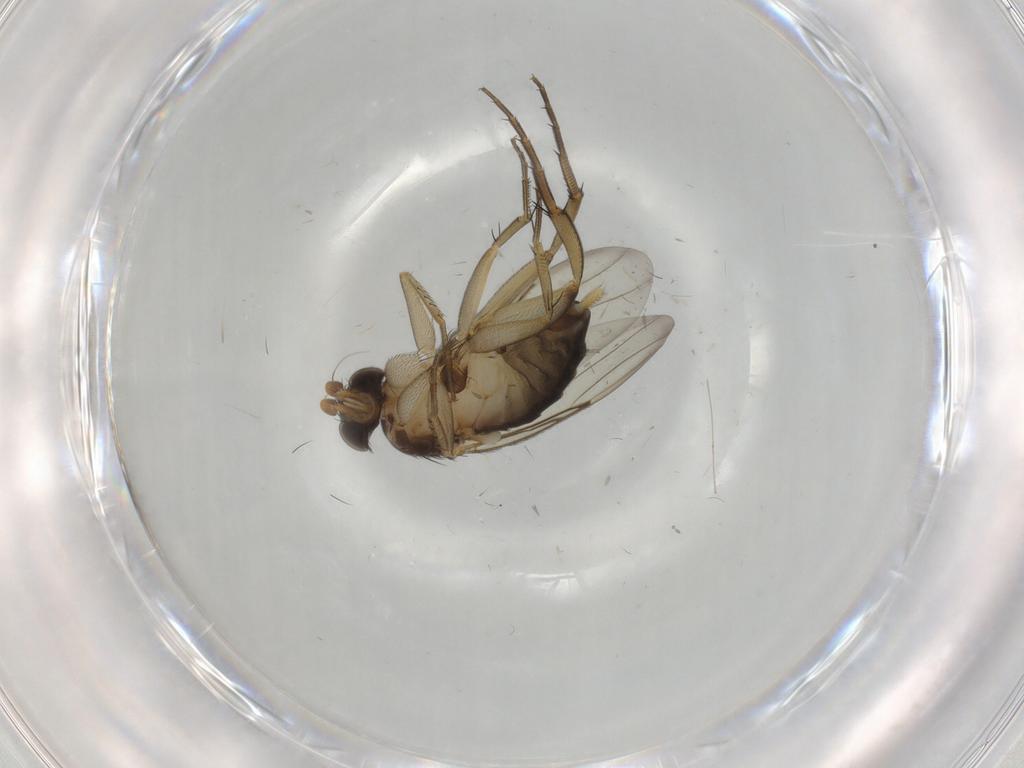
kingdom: Animalia
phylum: Arthropoda
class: Insecta
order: Diptera
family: Phoridae
